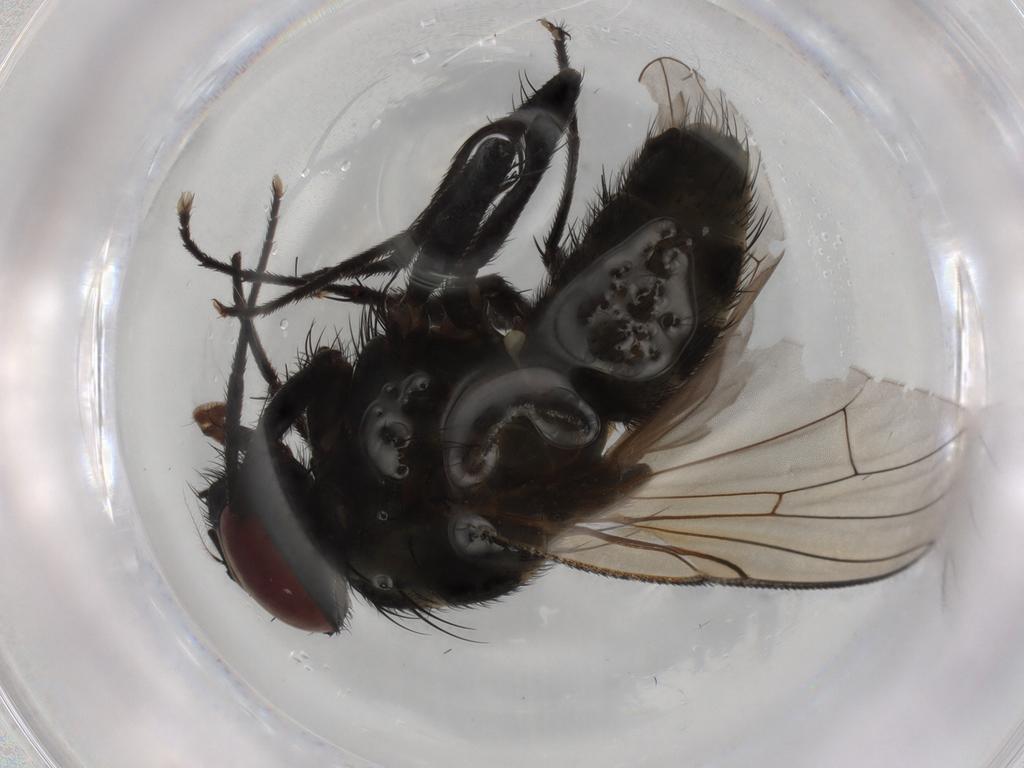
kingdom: Animalia
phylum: Arthropoda
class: Insecta
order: Diptera
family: Muscidae
